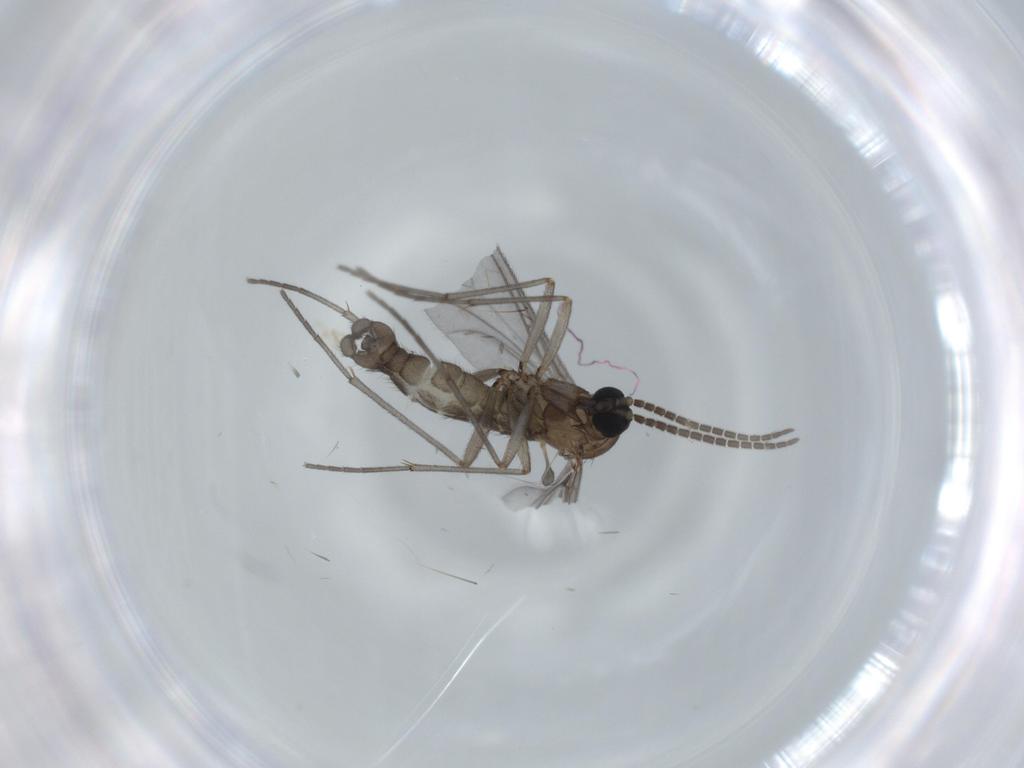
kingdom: Animalia
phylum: Arthropoda
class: Insecta
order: Diptera
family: Sciaridae
